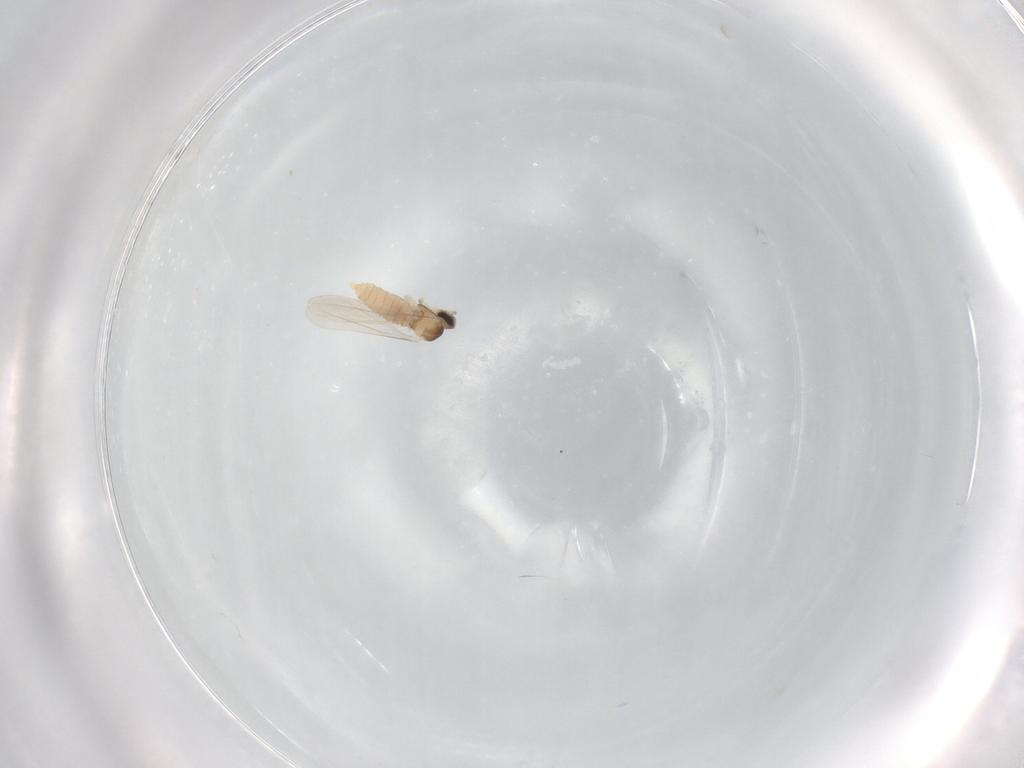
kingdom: Animalia
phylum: Arthropoda
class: Insecta
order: Diptera
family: Cecidomyiidae
